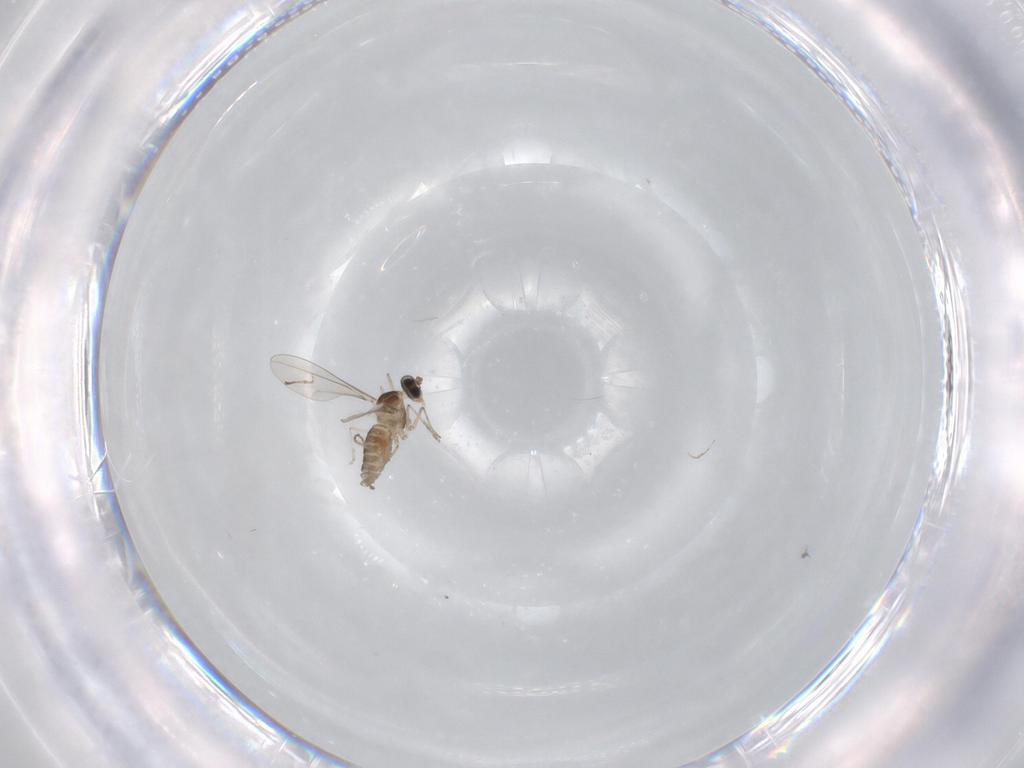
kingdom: Animalia
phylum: Arthropoda
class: Insecta
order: Diptera
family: Cecidomyiidae
